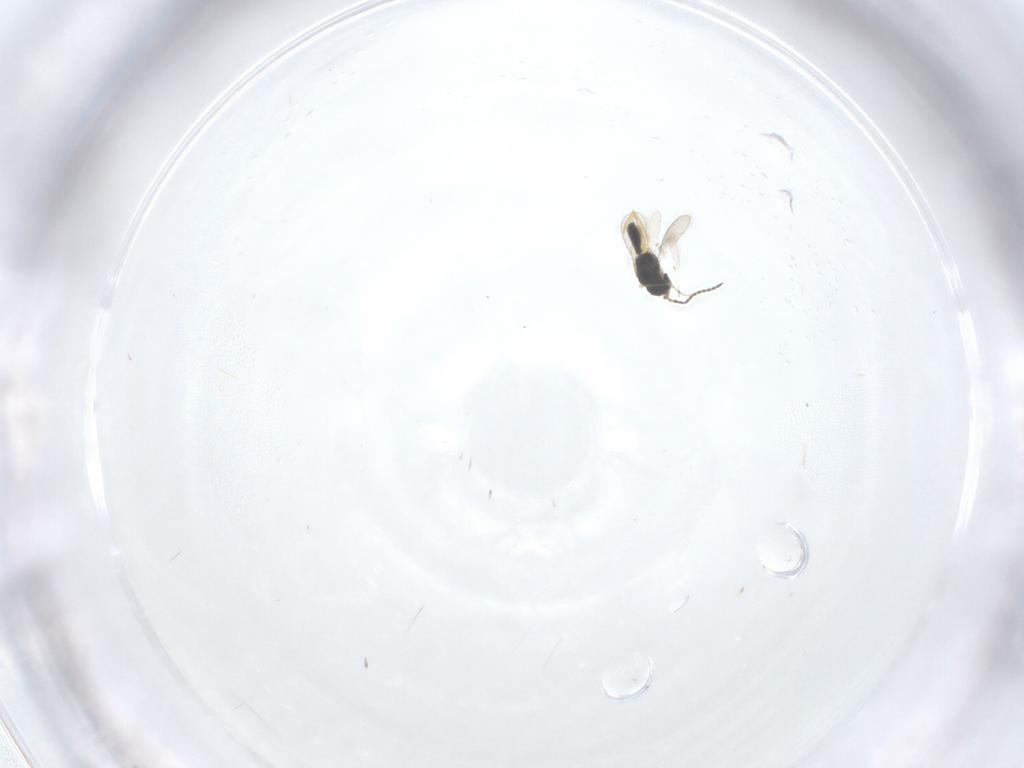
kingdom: Animalia
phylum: Arthropoda
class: Insecta
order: Hymenoptera
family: Scelionidae
